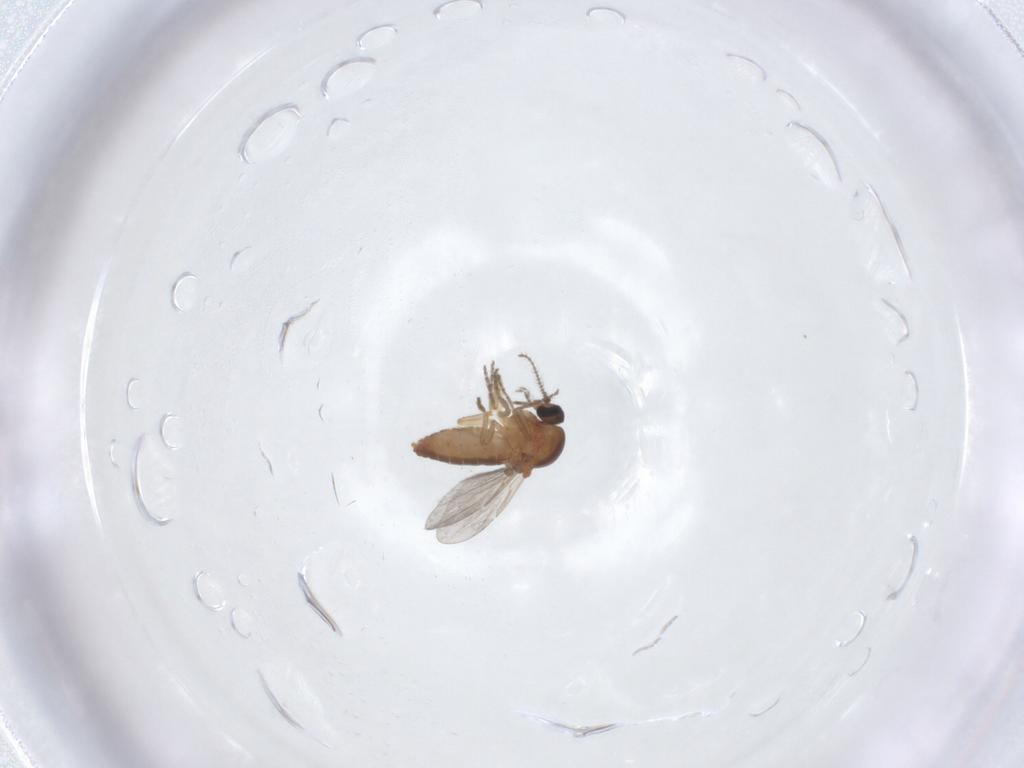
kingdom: Animalia
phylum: Arthropoda
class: Insecta
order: Diptera
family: Ceratopogonidae
